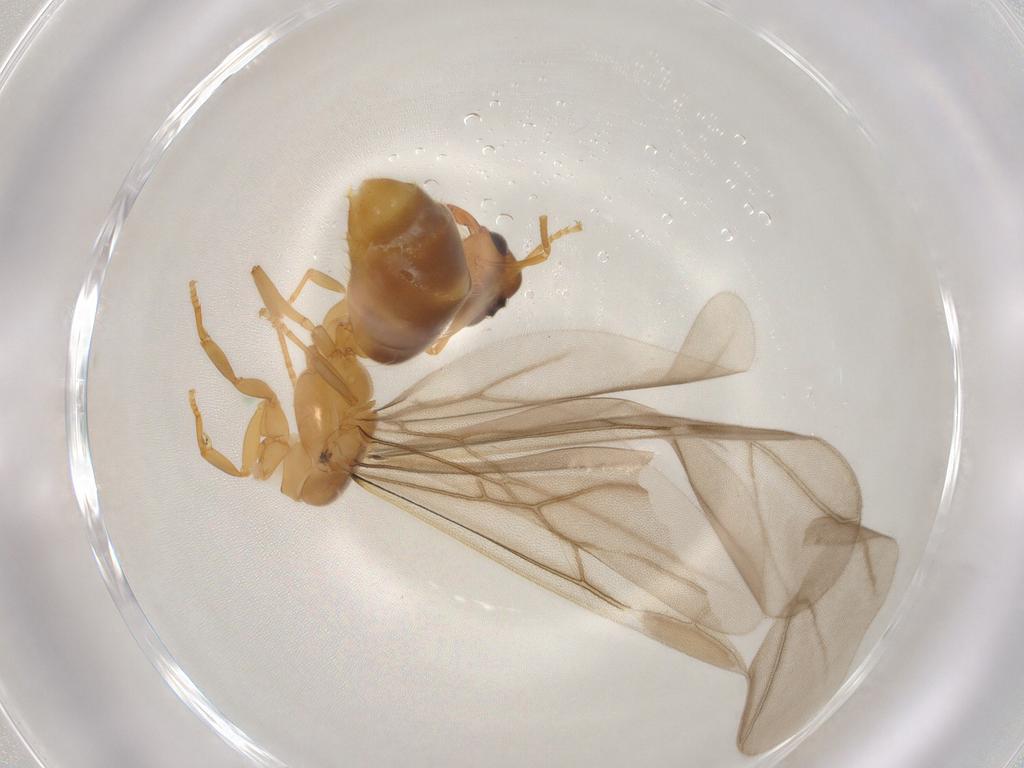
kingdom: Animalia
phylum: Arthropoda
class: Insecta
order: Hymenoptera
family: Formicidae
